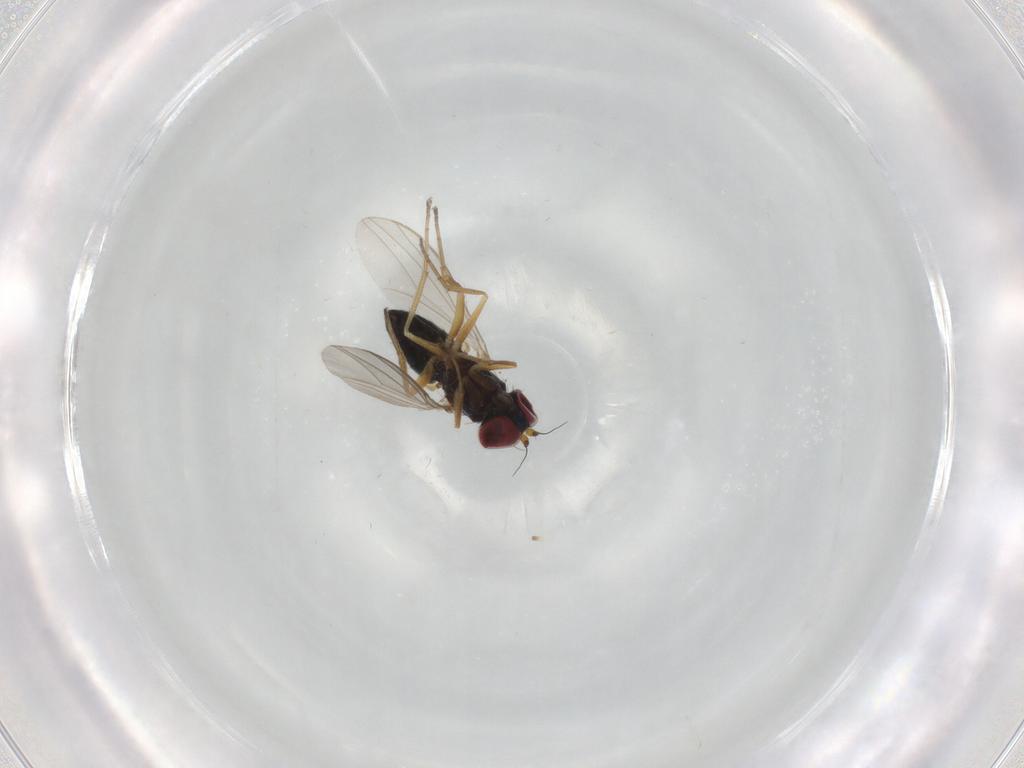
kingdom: Animalia
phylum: Arthropoda
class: Insecta
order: Diptera
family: Dolichopodidae
